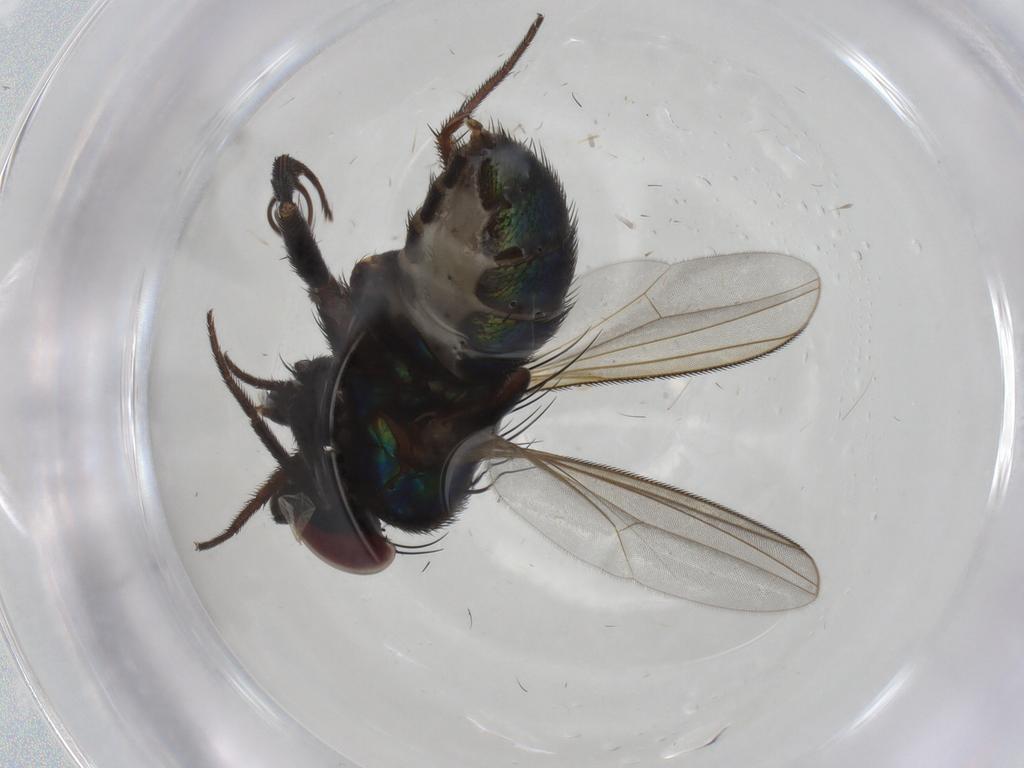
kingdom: Animalia
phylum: Arthropoda
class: Insecta
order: Diptera
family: Dolichopodidae
